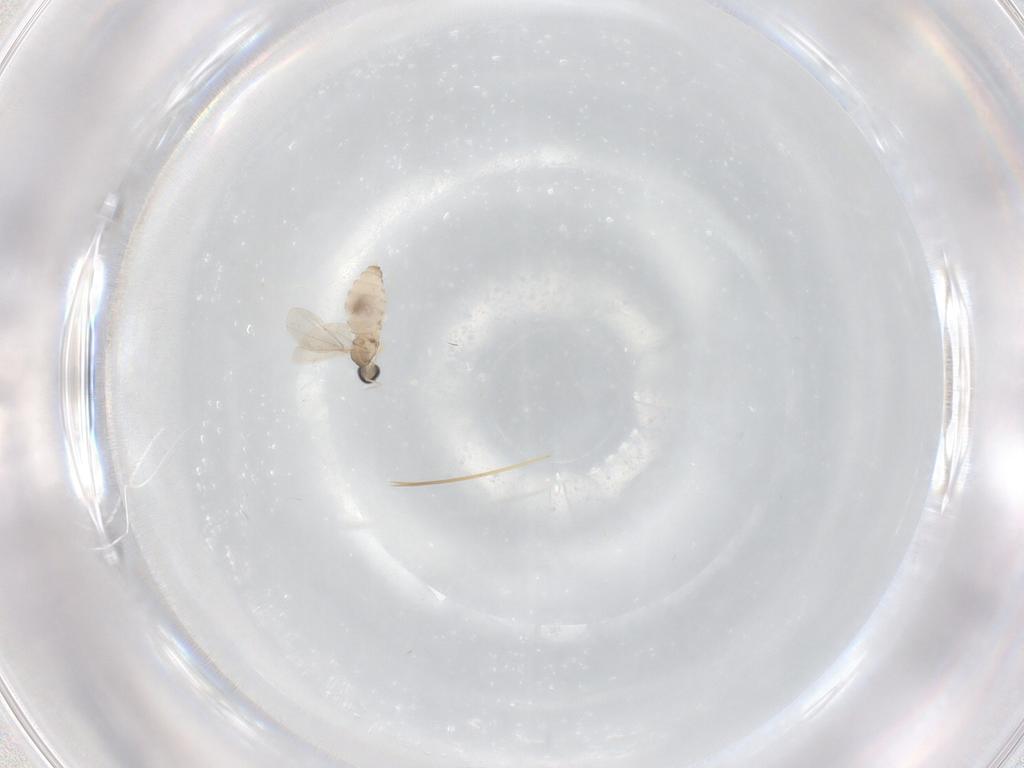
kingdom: Animalia
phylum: Arthropoda
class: Insecta
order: Diptera
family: Cecidomyiidae
